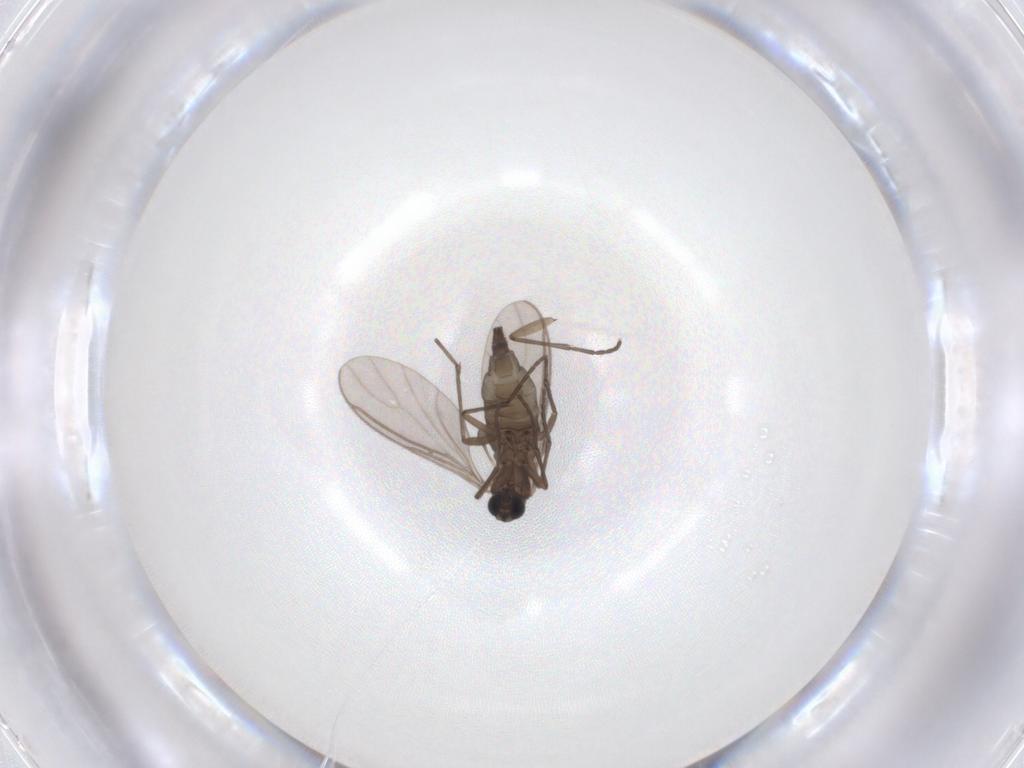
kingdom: Animalia
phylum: Arthropoda
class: Insecta
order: Diptera
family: Sciaridae
